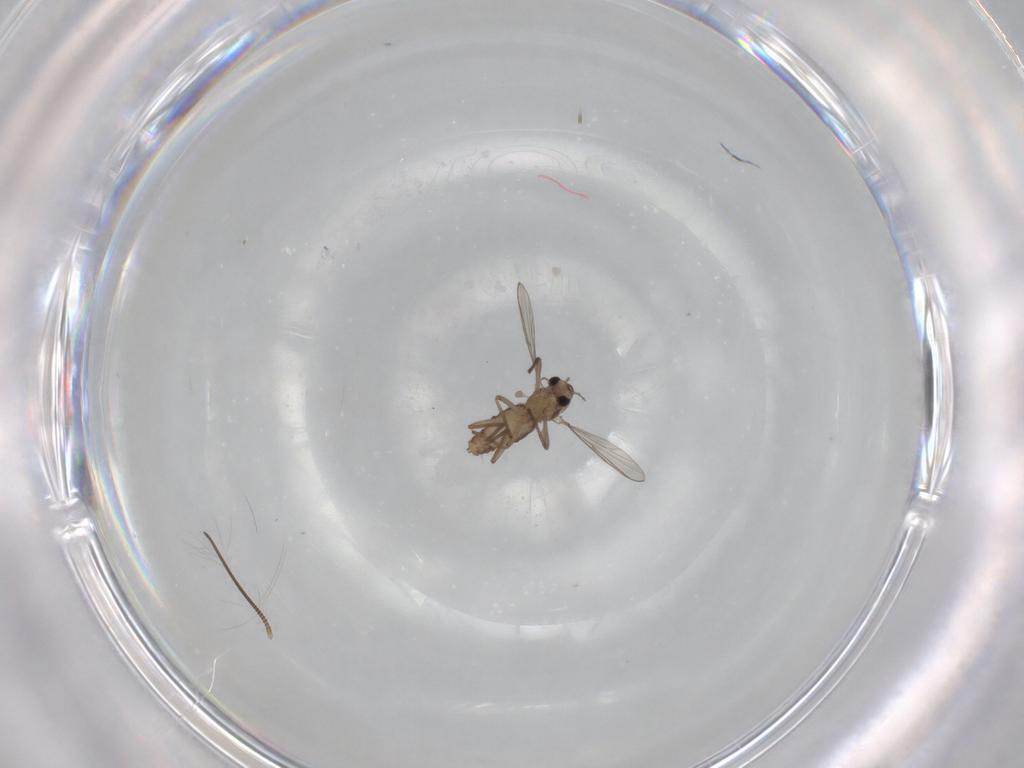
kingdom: Animalia
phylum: Arthropoda
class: Insecta
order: Diptera
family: Chironomidae
